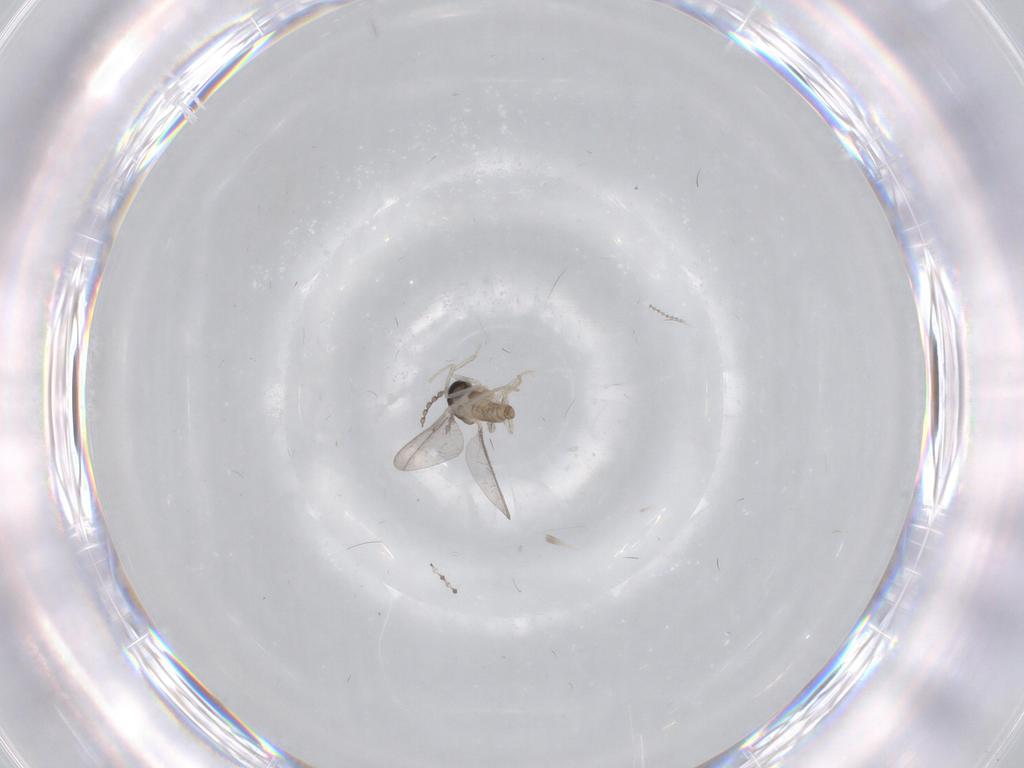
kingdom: Animalia
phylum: Arthropoda
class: Insecta
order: Diptera
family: Cecidomyiidae
